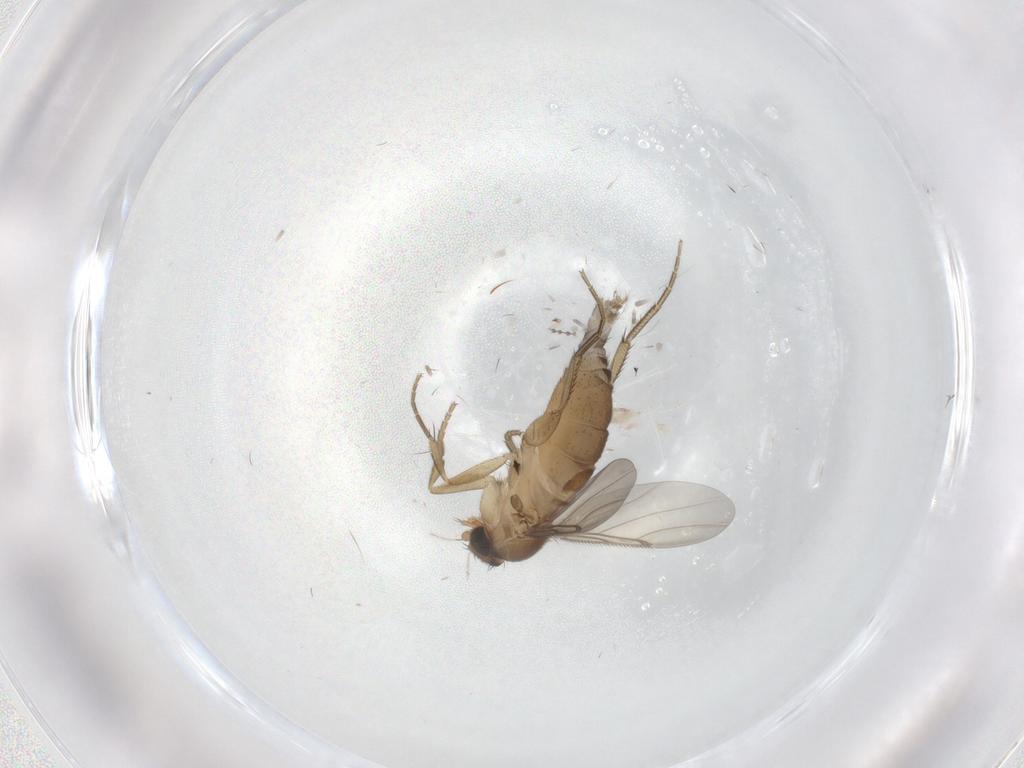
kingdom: Animalia
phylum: Arthropoda
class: Insecta
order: Diptera
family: Phoridae
